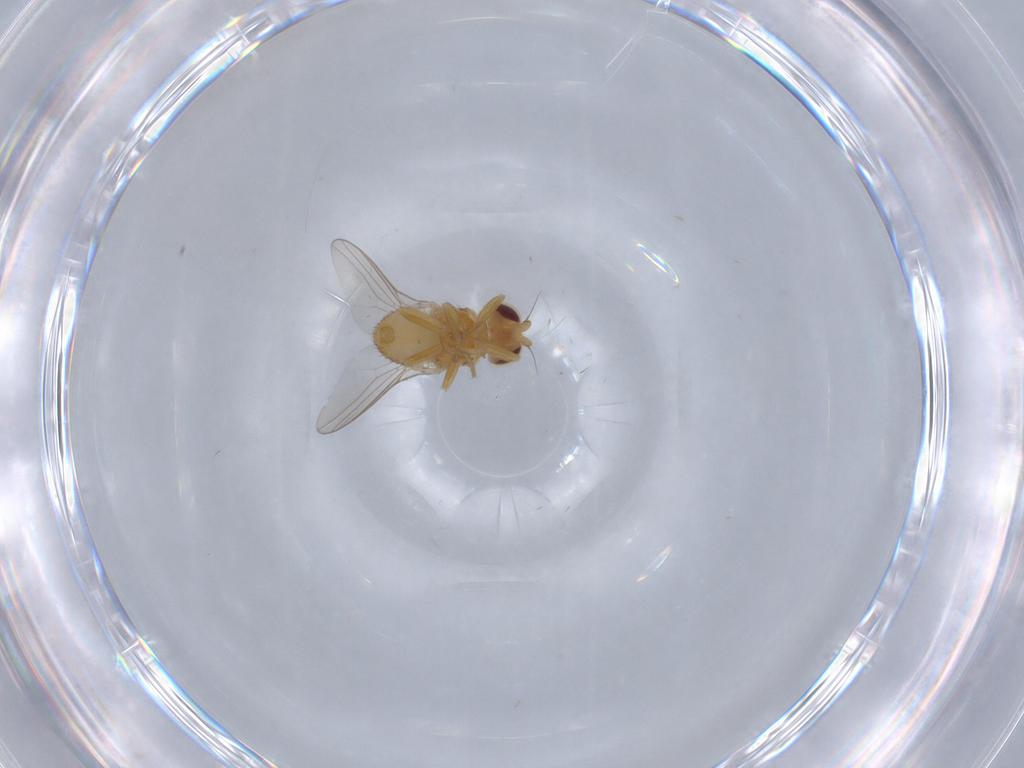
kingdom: Animalia
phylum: Arthropoda
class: Insecta
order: Diptera
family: Chloropidae
